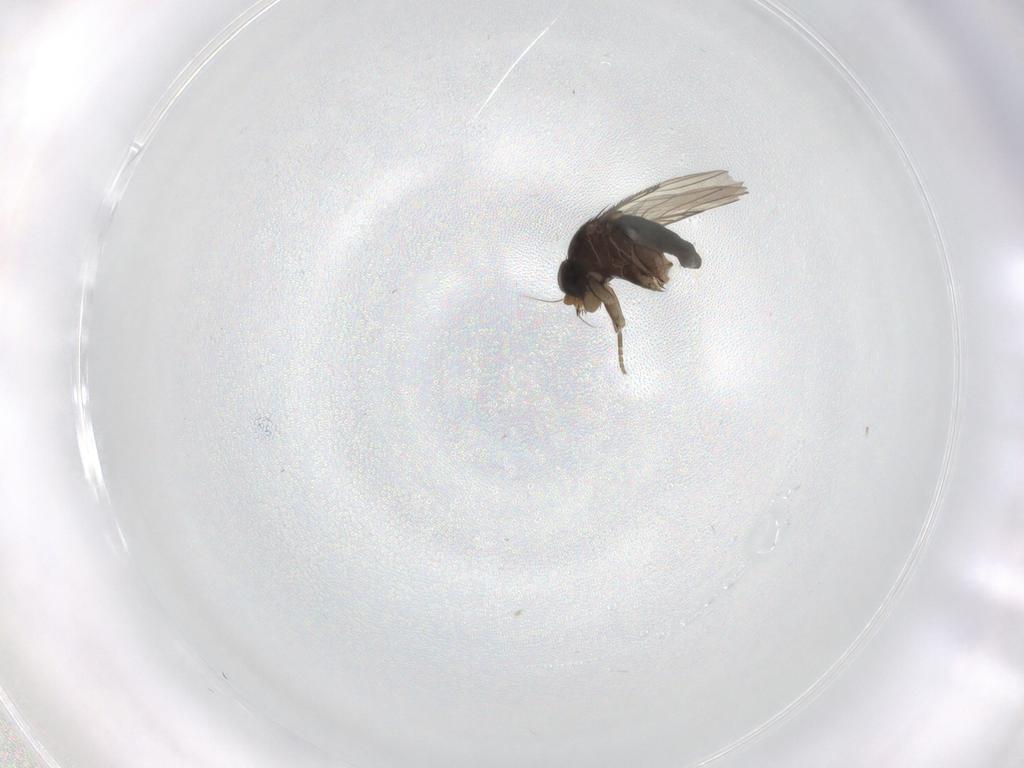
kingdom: Animalia
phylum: Arthropoda
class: Insecta
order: Diptera
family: Phoridae
